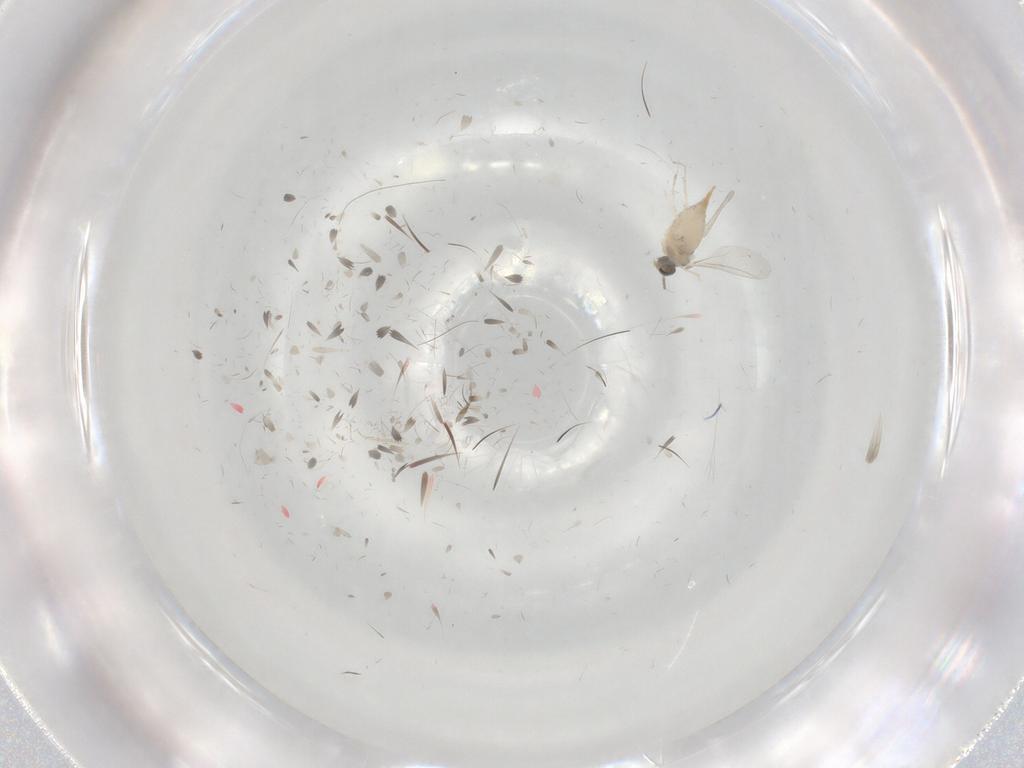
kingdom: Animalia
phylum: Arthropoda
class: Insecta
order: Diptera
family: Cecidomyiidae
